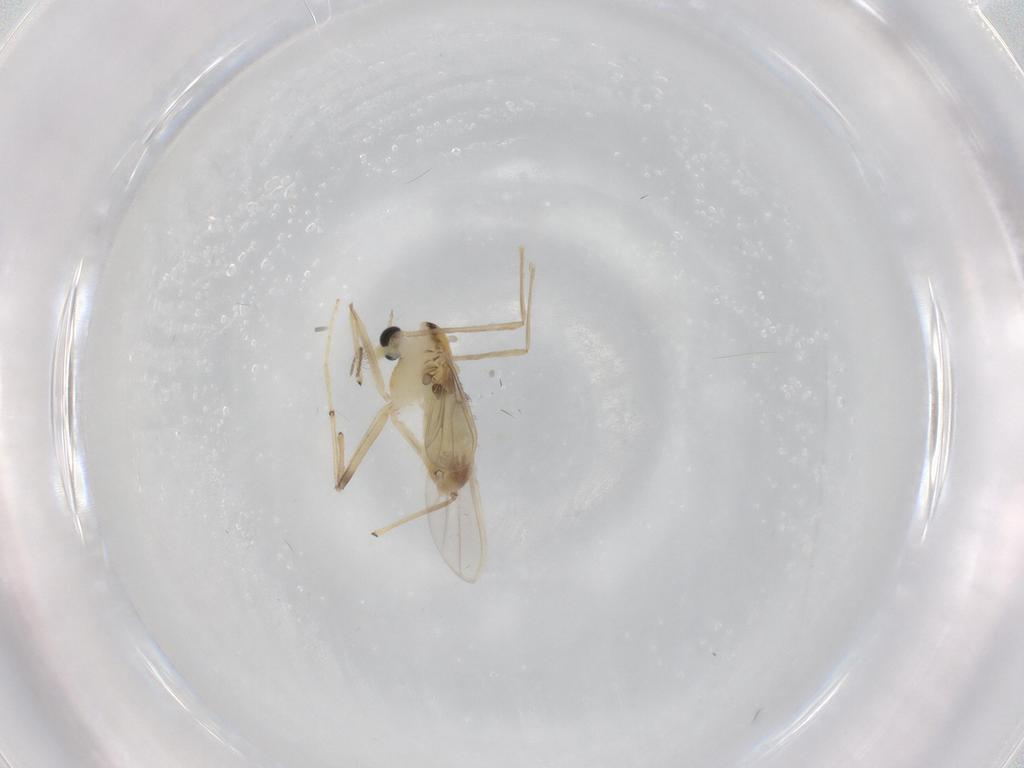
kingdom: Animalia
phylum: Arthropoda
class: Insecta
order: Diptera
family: Chironomidae
